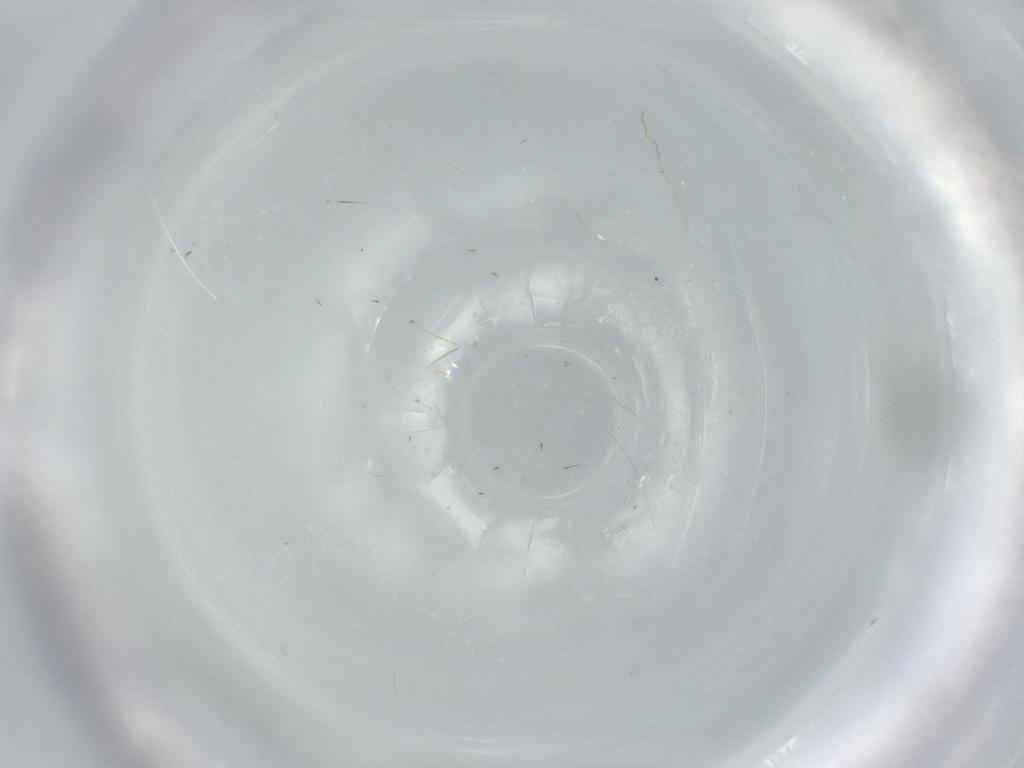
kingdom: Animalia
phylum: Arthropoda
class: Insecta
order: Diptera
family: Cecidomyiidae
